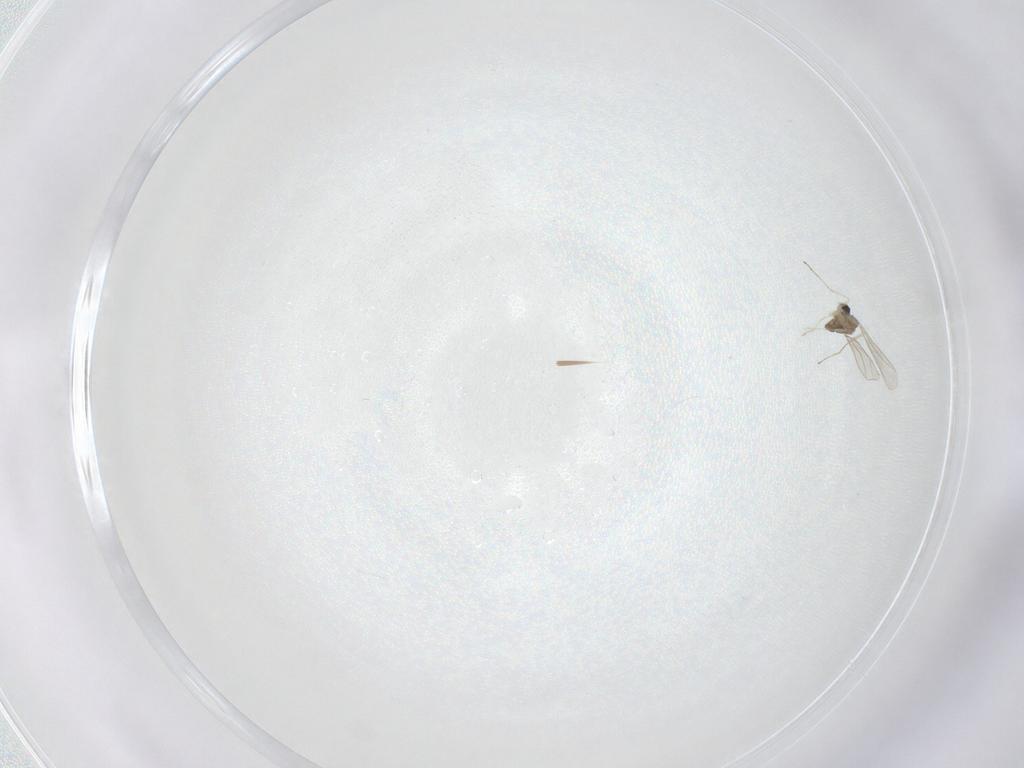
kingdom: Animalia
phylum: Arthropoda
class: Insecta
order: Diptera
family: Cecidomyiidae
